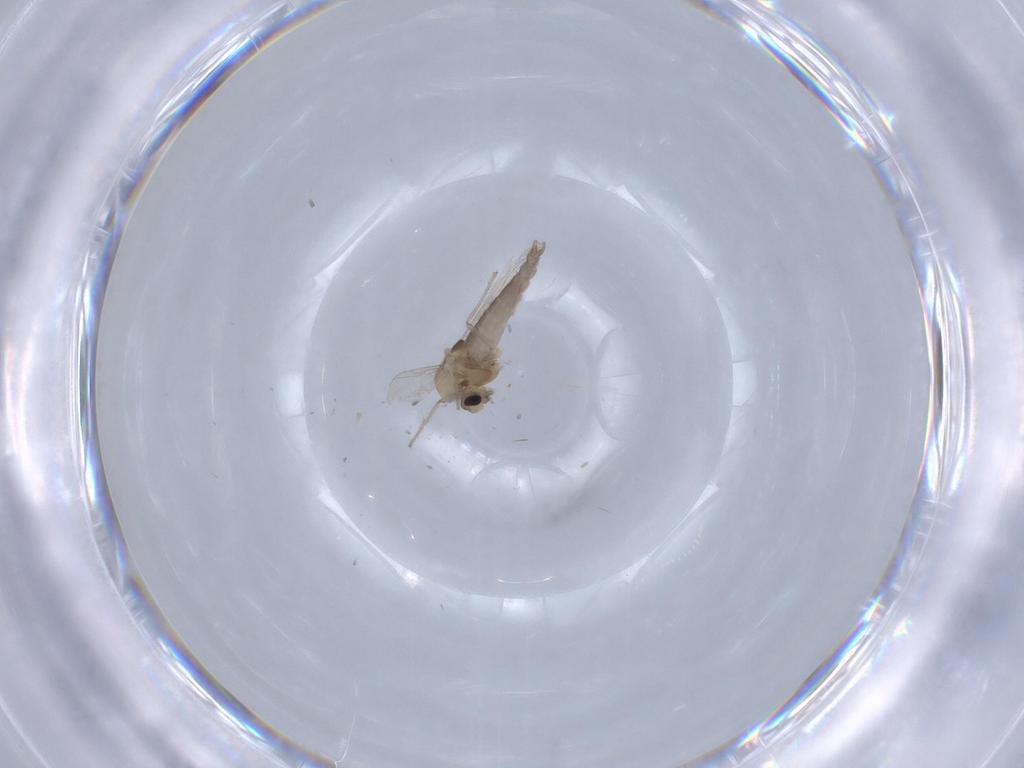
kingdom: Animalia
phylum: Arthropoda
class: Insecta
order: Diptera
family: Chironomidae
